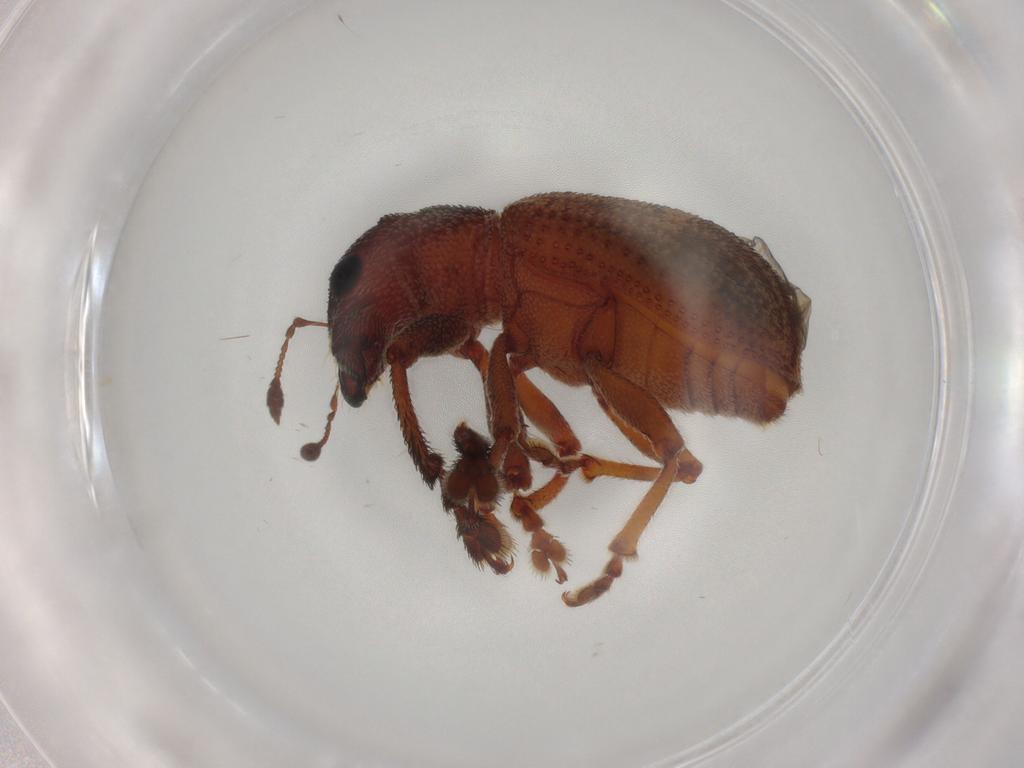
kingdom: Animalia
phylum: Arthropoda
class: Insecta
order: Coleoptera
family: Curculionidae
